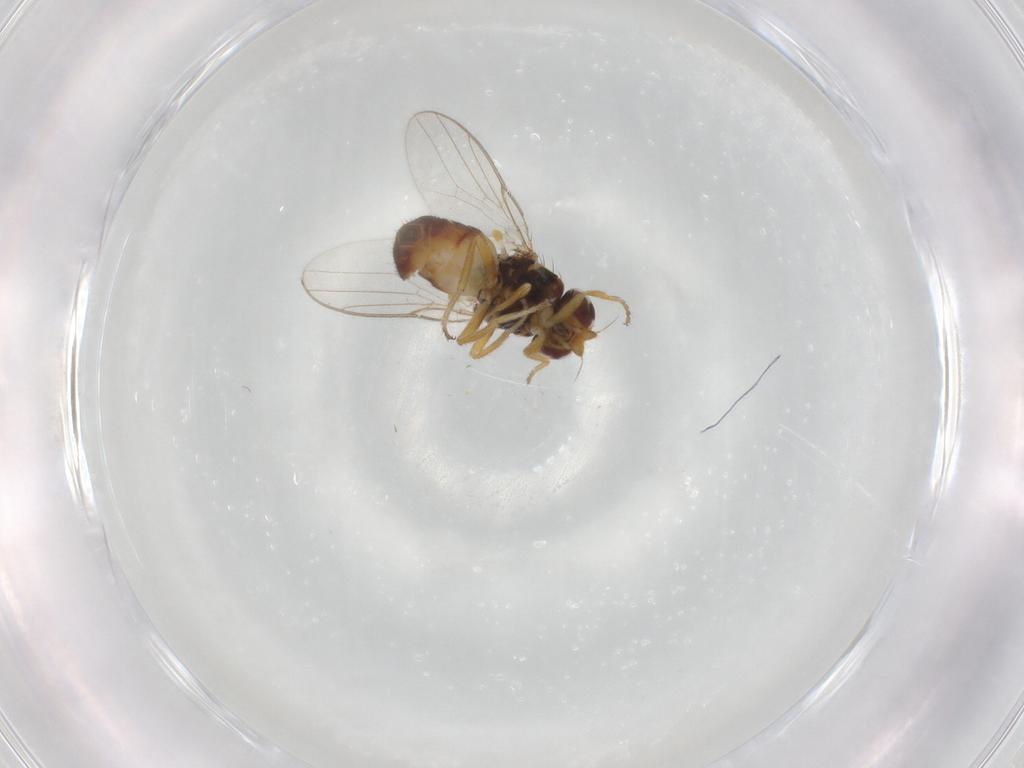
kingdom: Animalia
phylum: Arthropoda
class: Insecta
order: Diptera
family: Chloropidae
